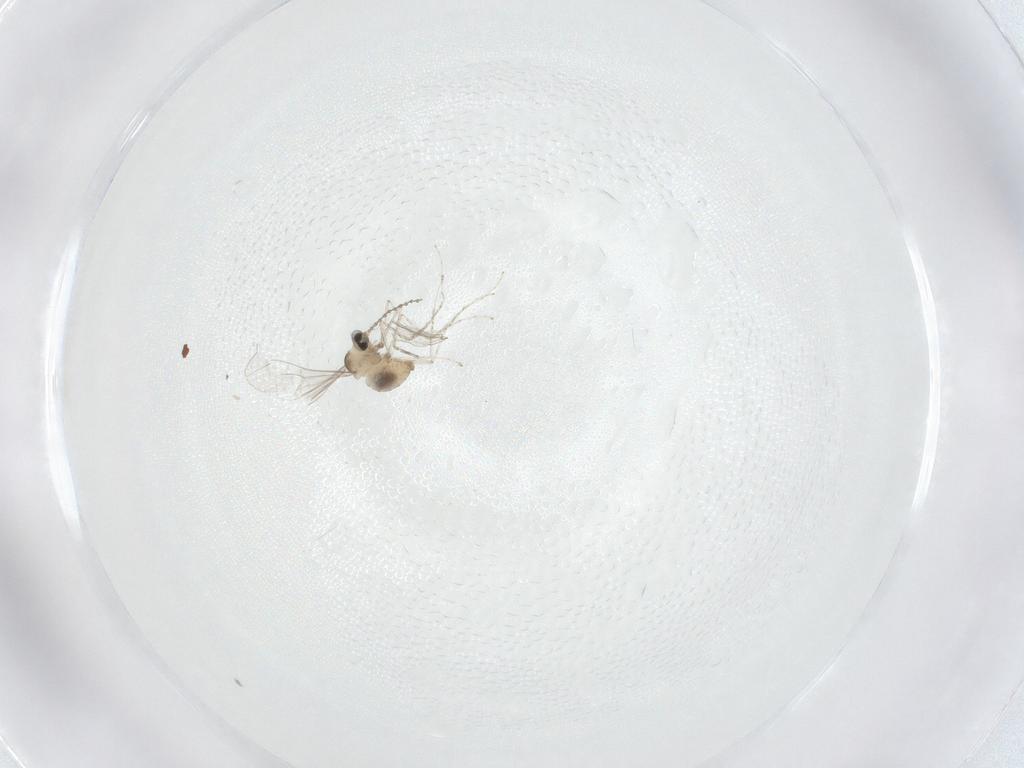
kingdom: Animalia
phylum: Arthropoda
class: Insecta
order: Diptera
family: Cecidomyiidae
